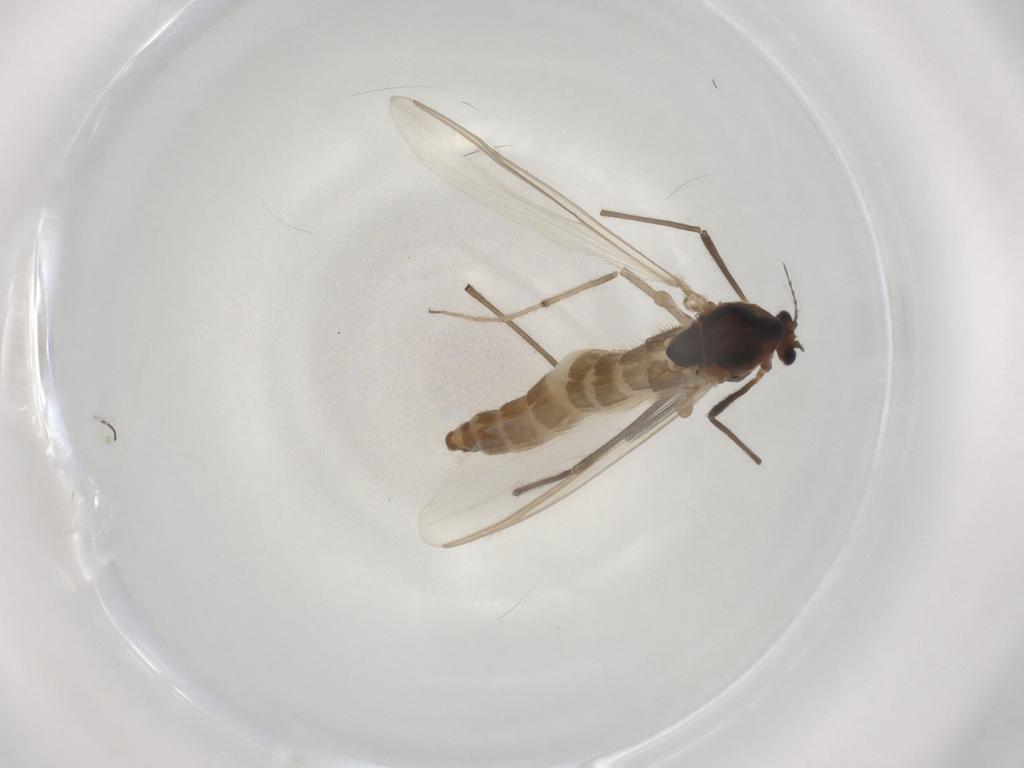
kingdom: Animalia
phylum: Arthropoda
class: Insecta
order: Diptera
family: Chironomidae
